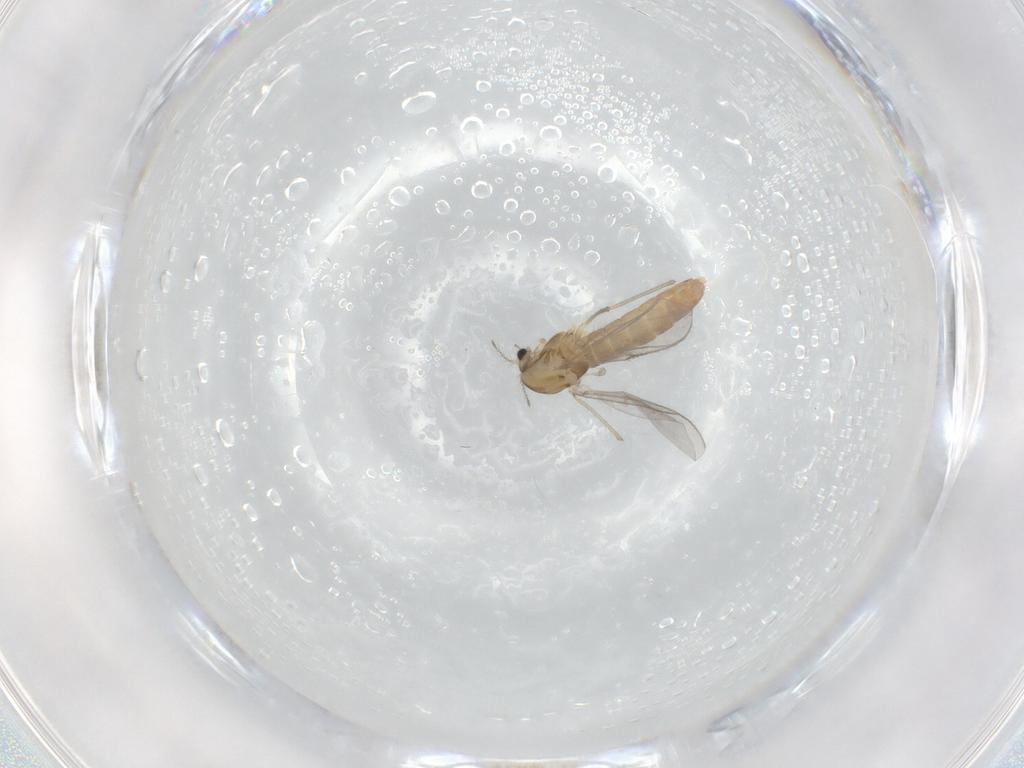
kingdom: Animalia
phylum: Arthropoda
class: Insecta
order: Diptera
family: Chironomidae
